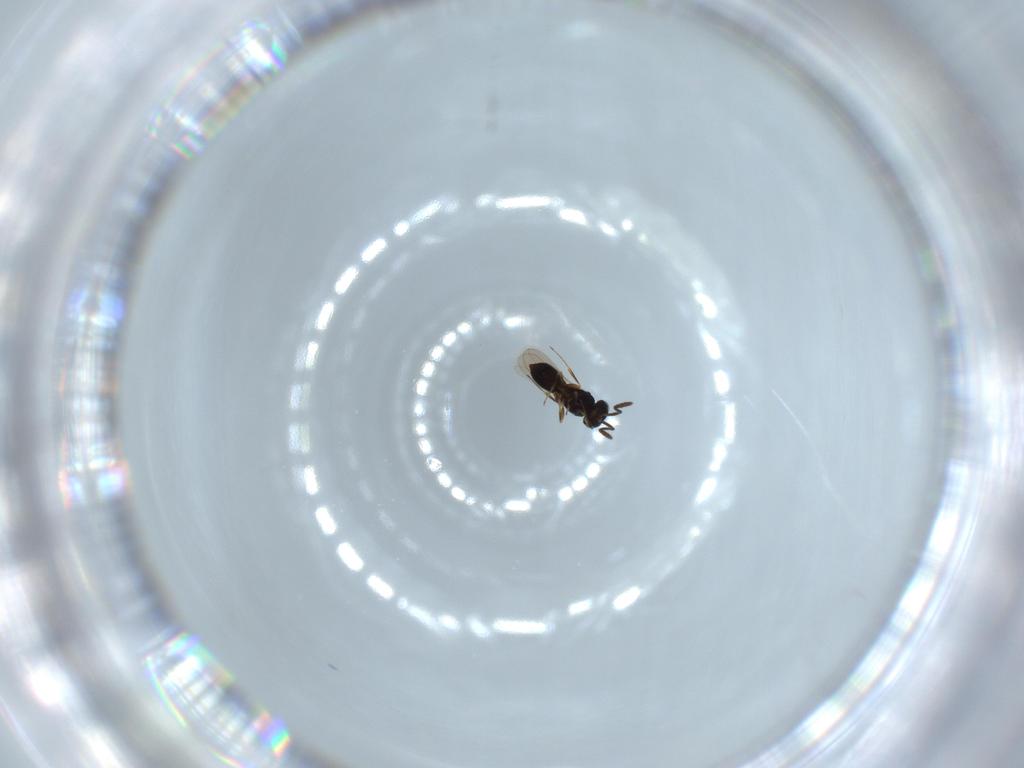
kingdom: Animalia
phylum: Arthropoda
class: Insecta
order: Hymenoptera
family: Scelionidae
